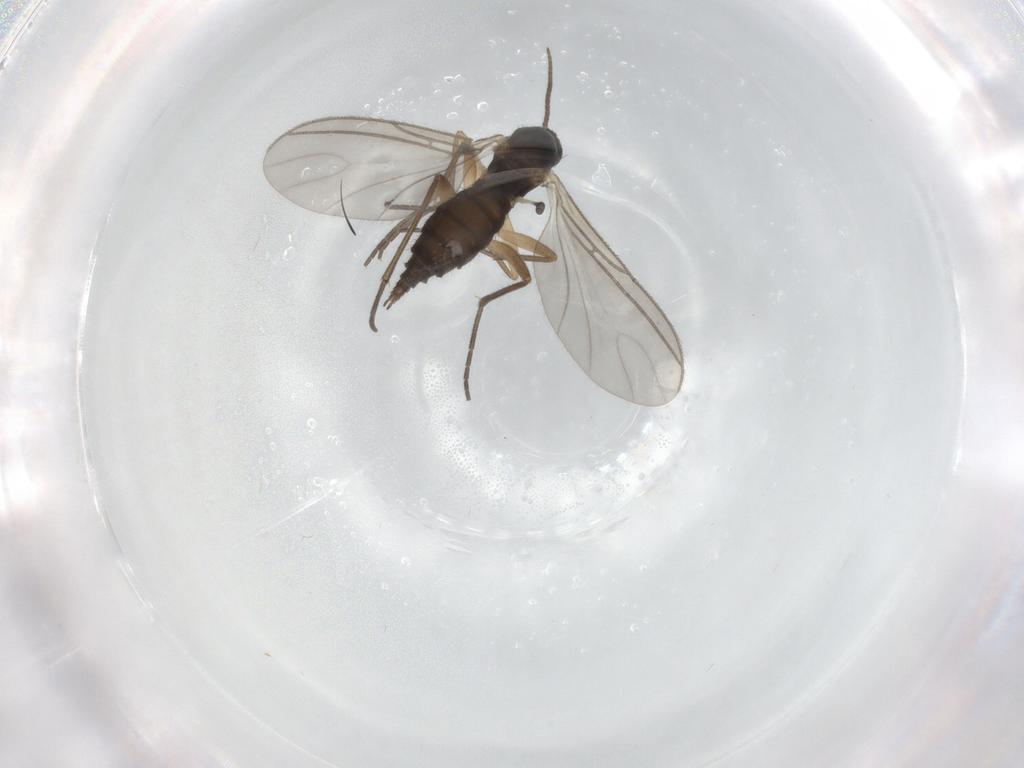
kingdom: Animalia
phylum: Arthropoda
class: Insecta
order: Diptera
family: Sciaridae
